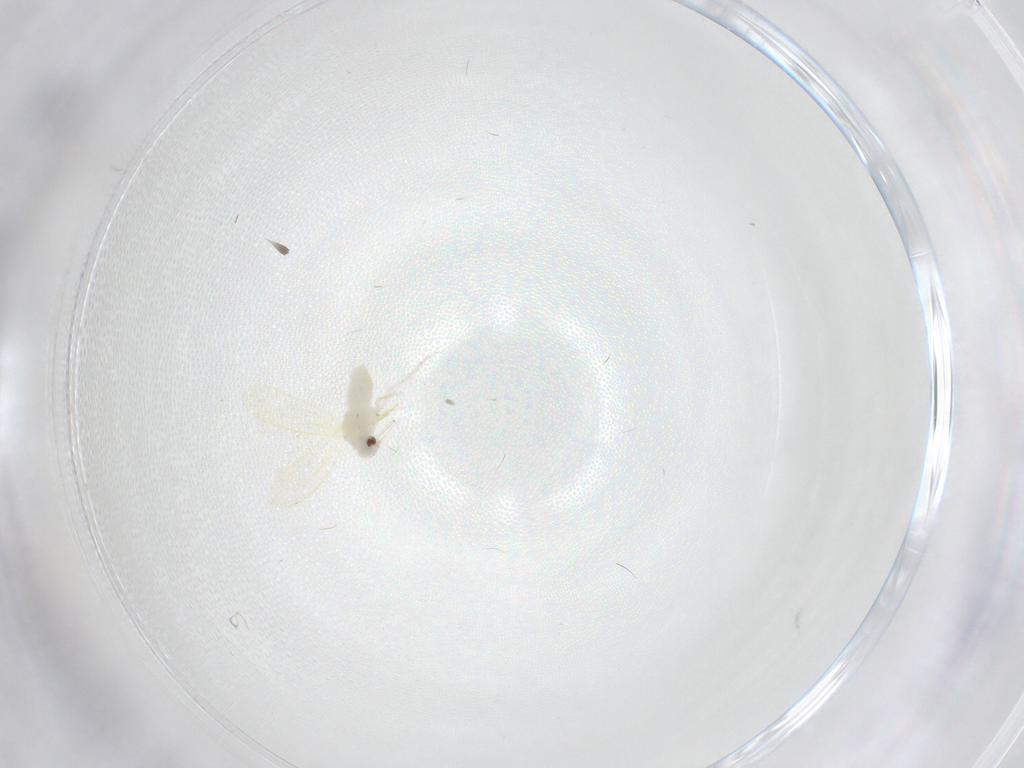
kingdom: Animalia
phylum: Arthropoda
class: Insecta
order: Hemiptera
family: Aleyrodidae
